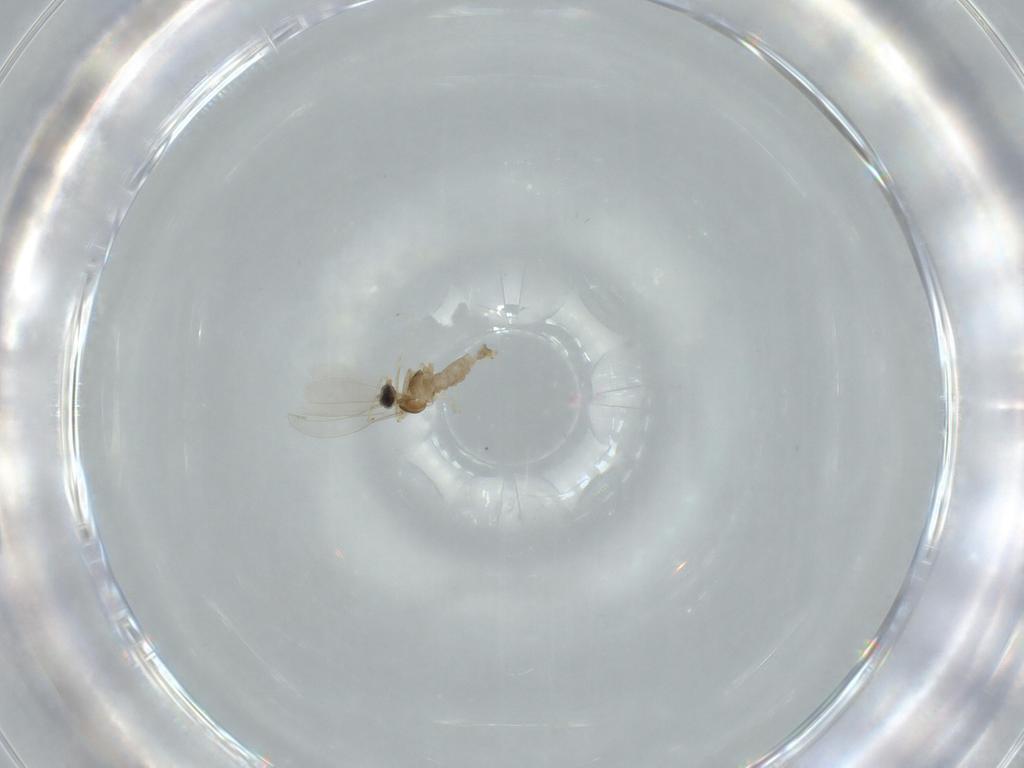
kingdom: Animalia
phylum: Arthropoda
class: Insecta
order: Diptera
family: Cecidomyiidae
